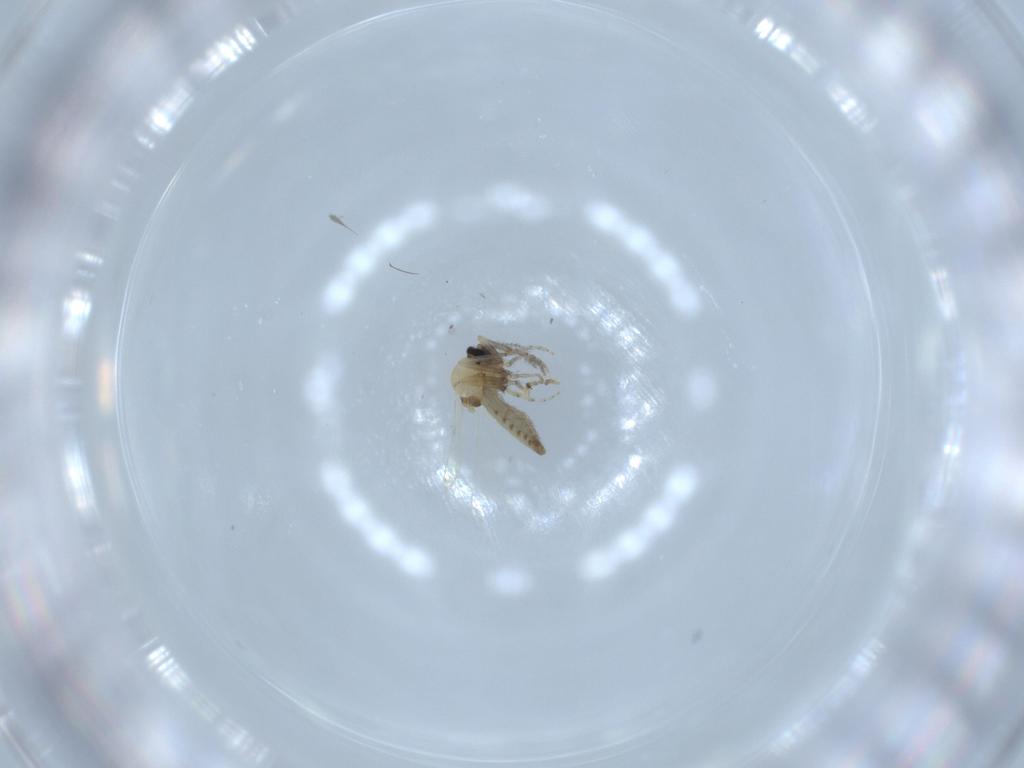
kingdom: Animalia
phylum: Arthropoda
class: Insecta
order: Diptera
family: Ceratopogonidae
